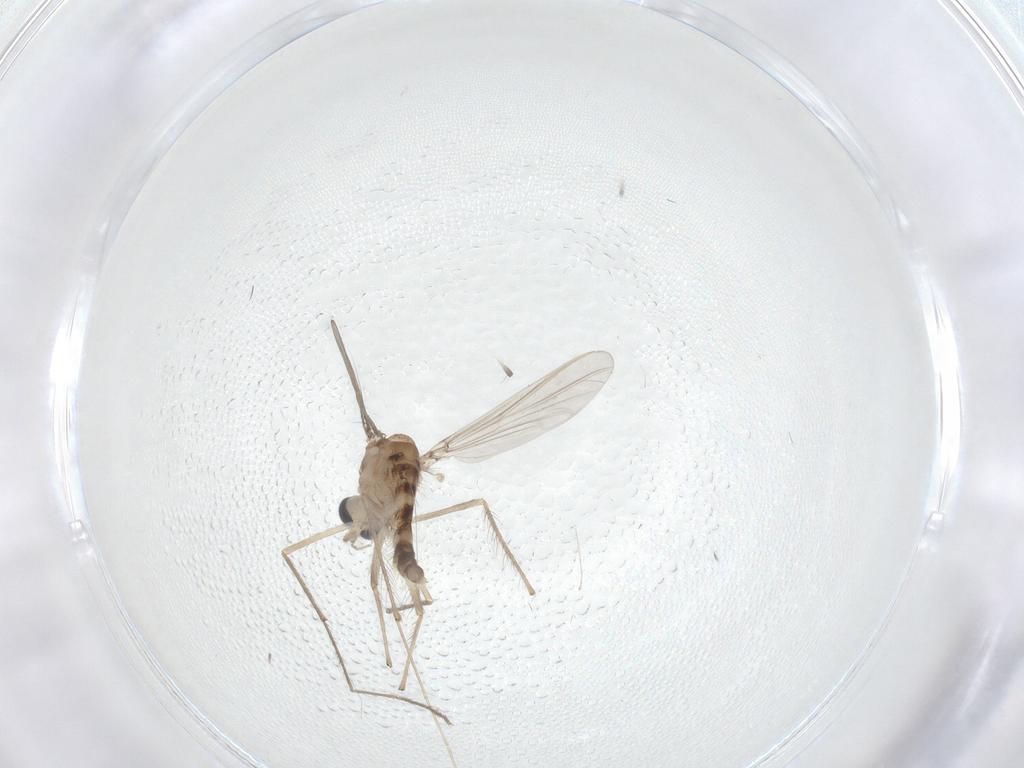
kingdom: Animalia
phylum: Arthropoda
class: Insecta
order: Diptera
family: Chironomidae
